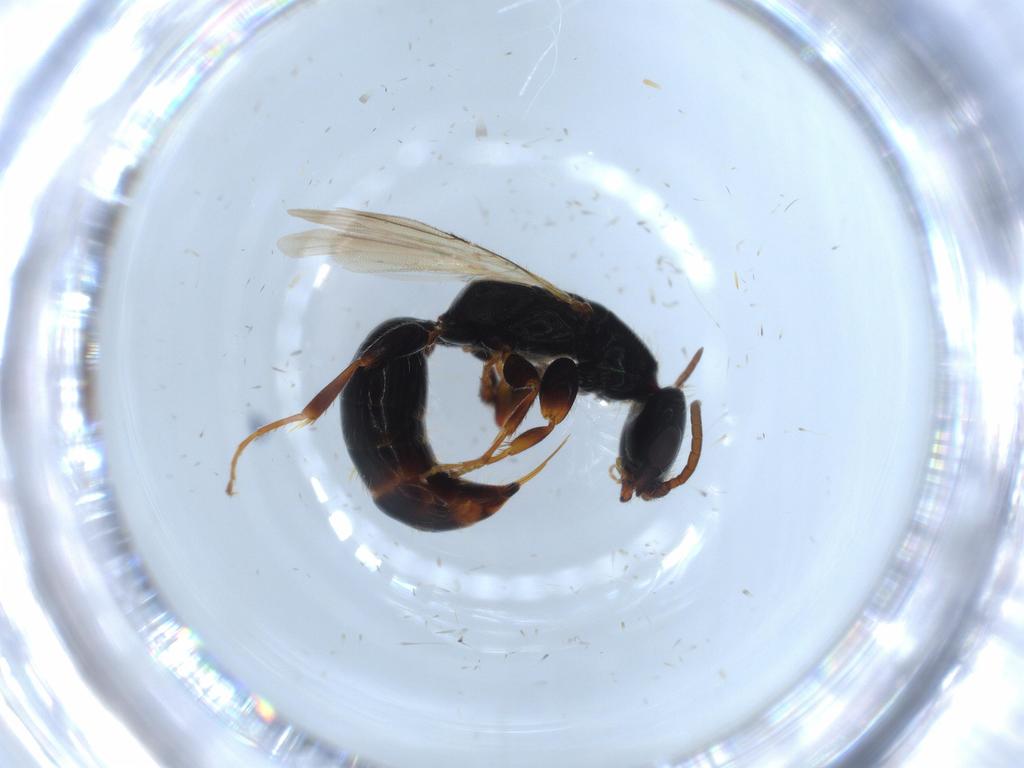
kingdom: Animalia
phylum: Arthropoda
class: Insecta
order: Hymenoptera
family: Bethylidae
